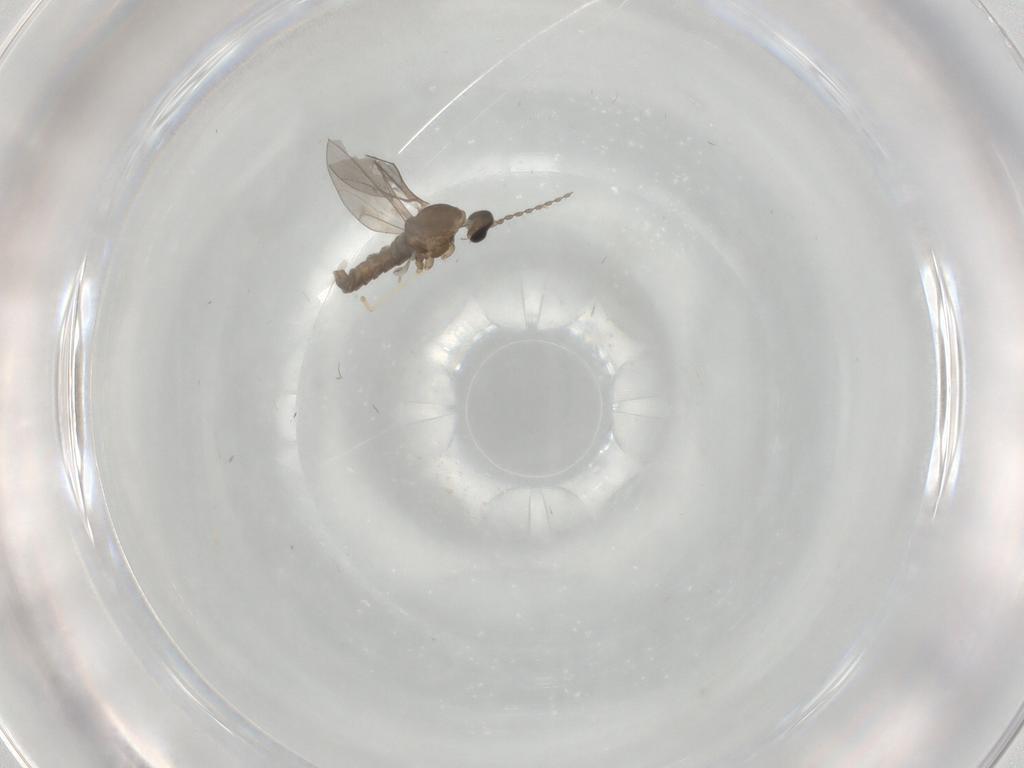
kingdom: Animalia
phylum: Arthropoda
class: Insecta
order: Diptera
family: Cecidomyiidae
